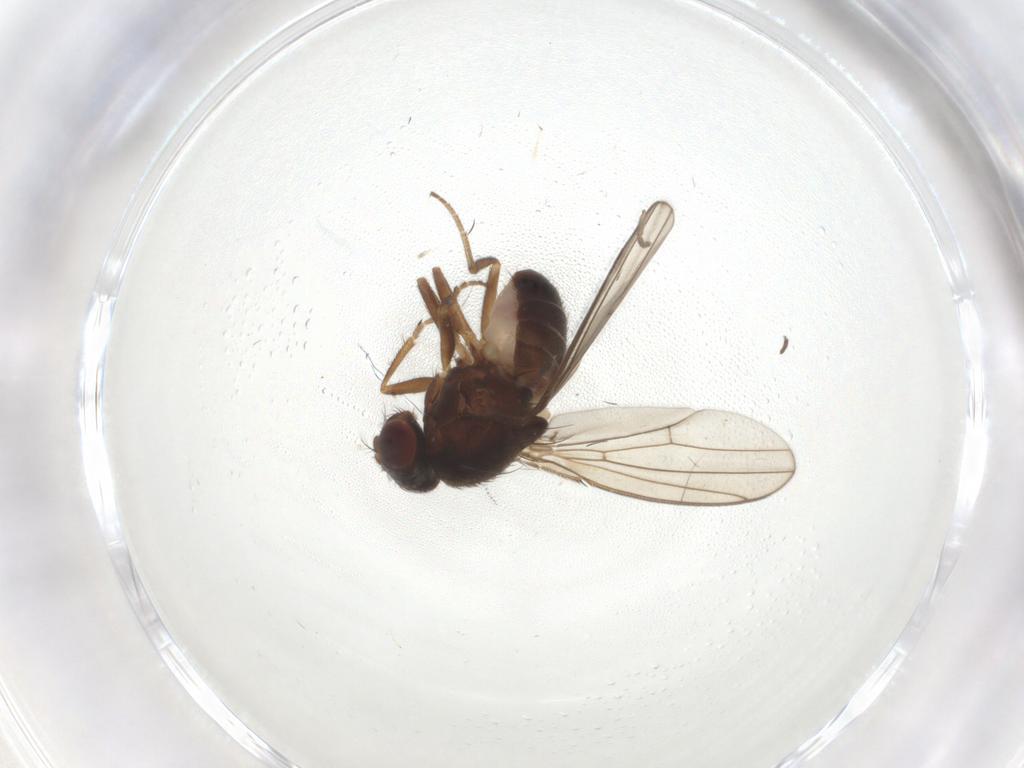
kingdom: Animalia
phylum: Arthropoda
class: Insecta
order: Diptera
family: Drosophilidae
